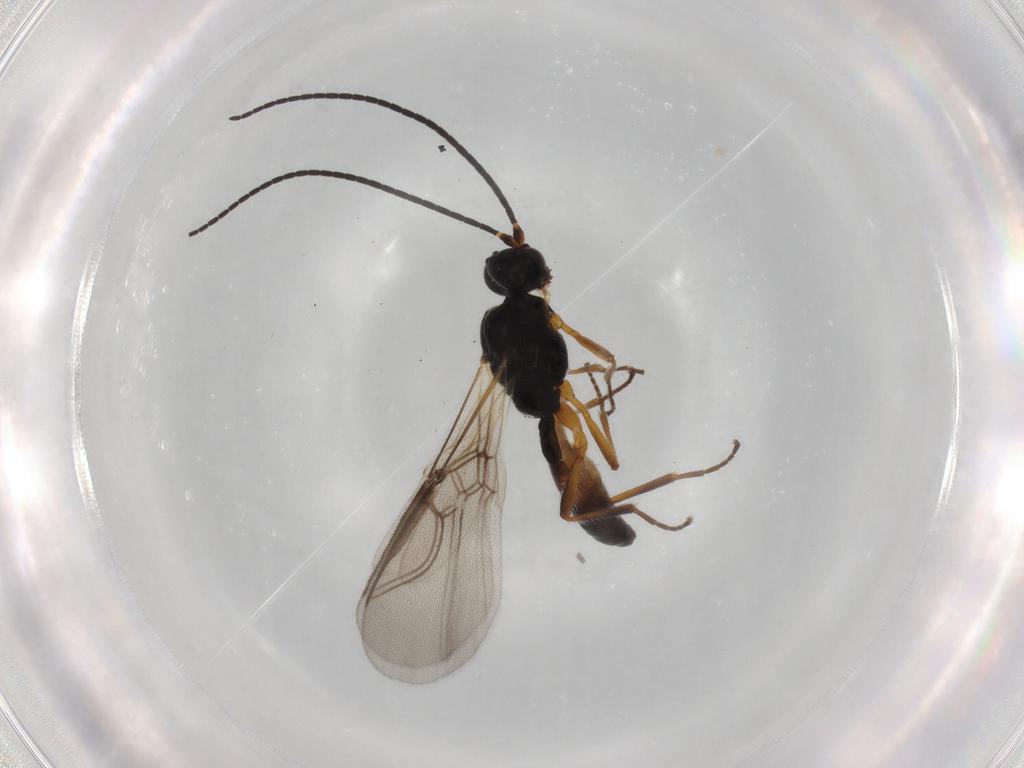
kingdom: Animalia
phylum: Arthropoda
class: Insecta
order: Hymenoptera
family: Braconidae
